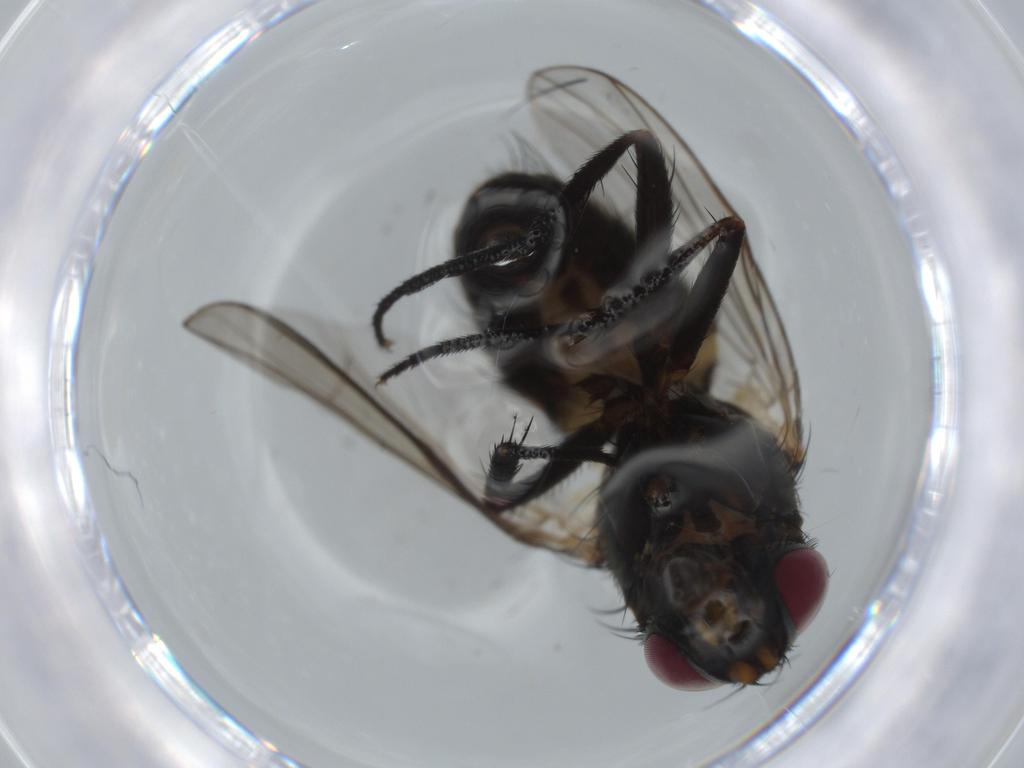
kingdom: Animalia
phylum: Arthropoda
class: Insecta
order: Diptera
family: Fannia
